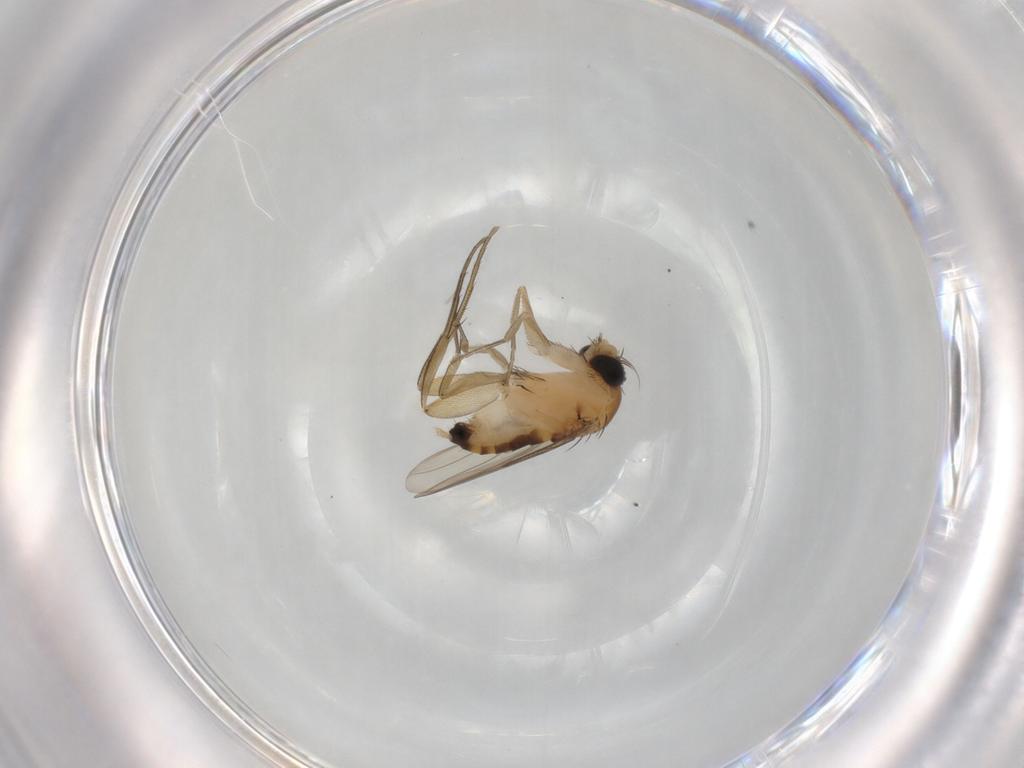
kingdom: Animalia
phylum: Arthropoda
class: Insecta
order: Diptera
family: Phoridae
